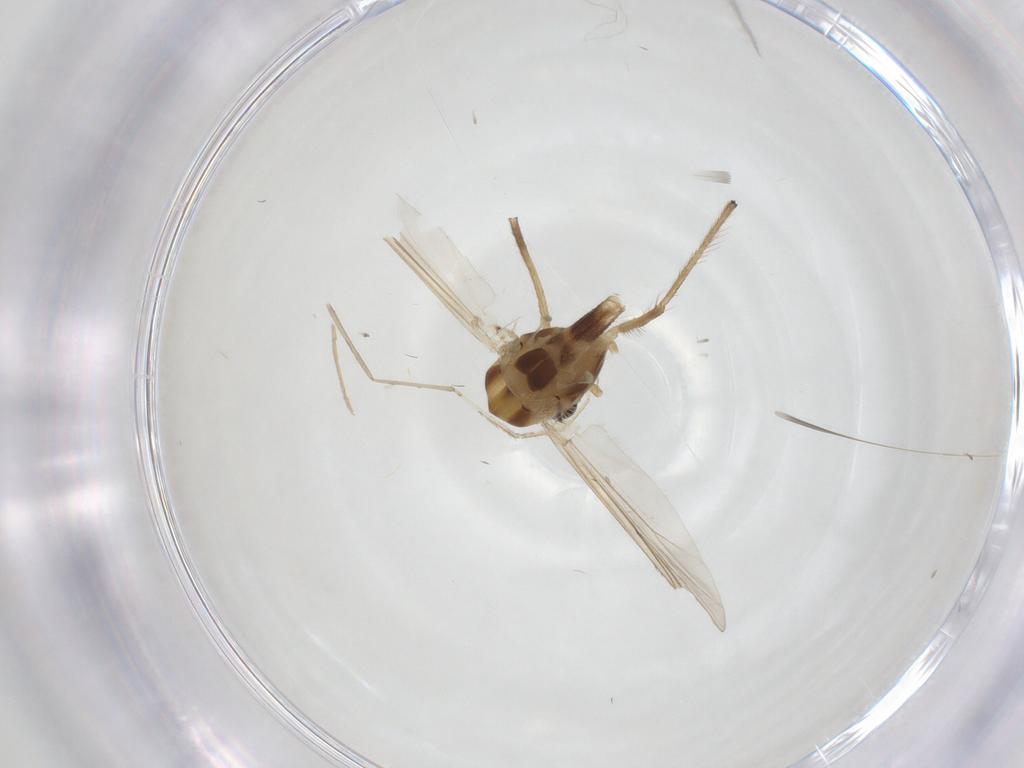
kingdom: Animalia
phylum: Arthropoda
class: Insecta
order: Diptera
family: Chironomidae
